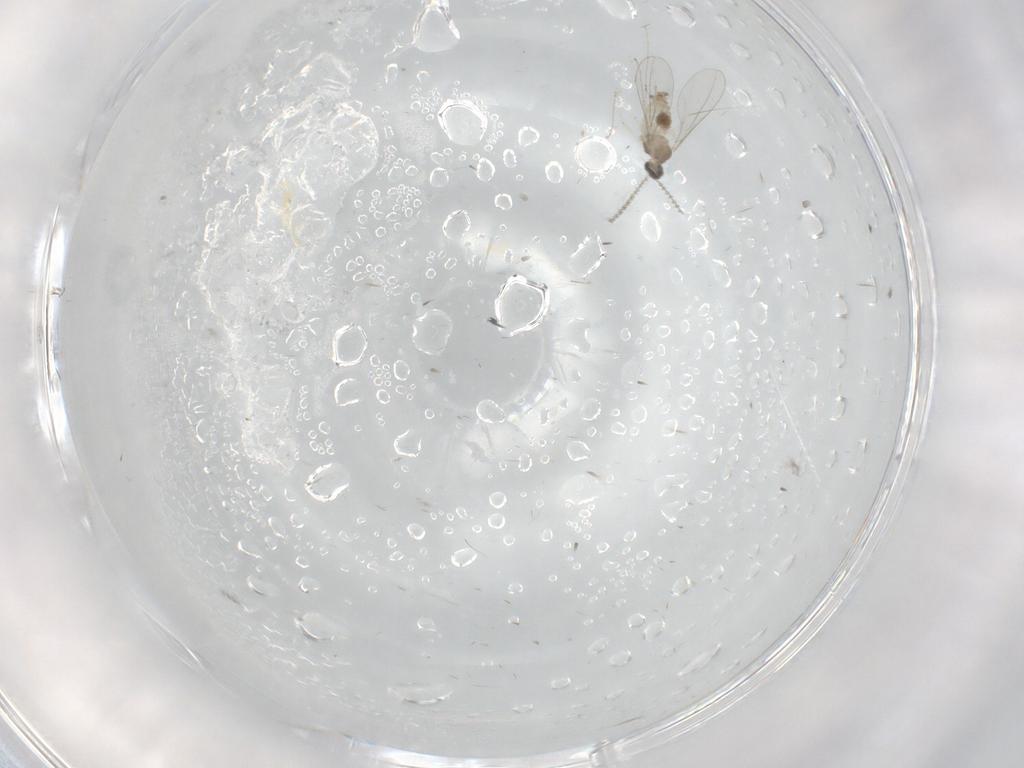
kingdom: Animalia
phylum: Arthropoda
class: Insecta
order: Diptera
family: Cecidomyiidae
